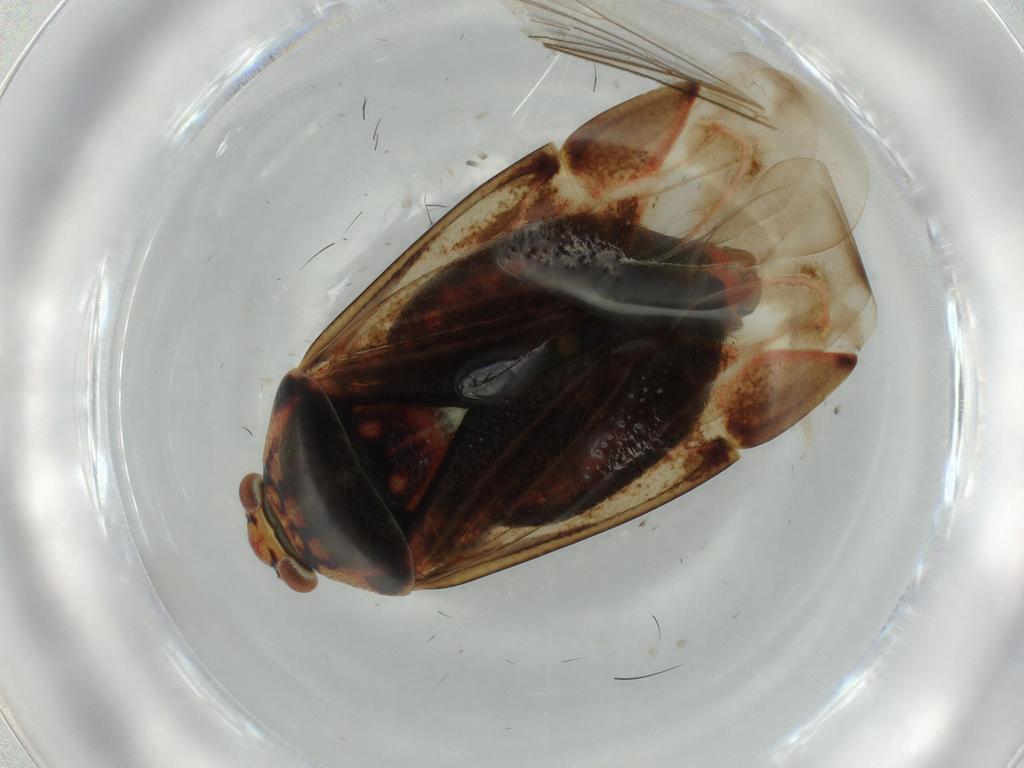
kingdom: Animalia
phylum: Arthropoda
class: Insecta
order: Hemiptera
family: Miridae
